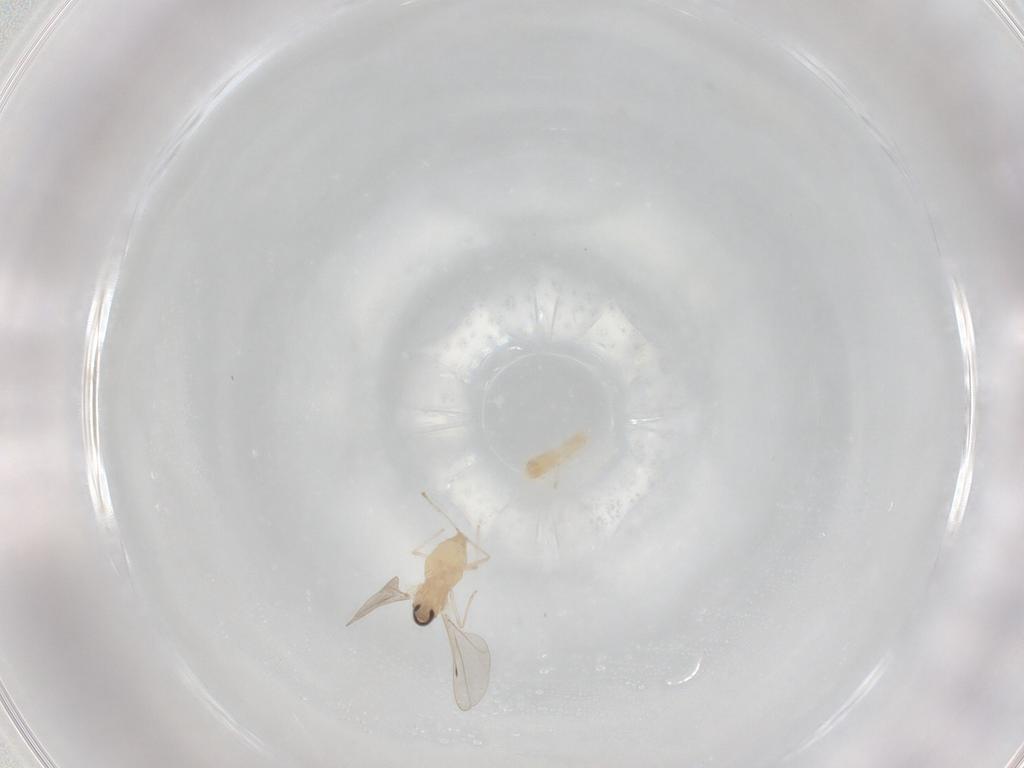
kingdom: Animalia
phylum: Arthropoda
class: Insecta
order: Diptera
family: Cecidomyiidae
